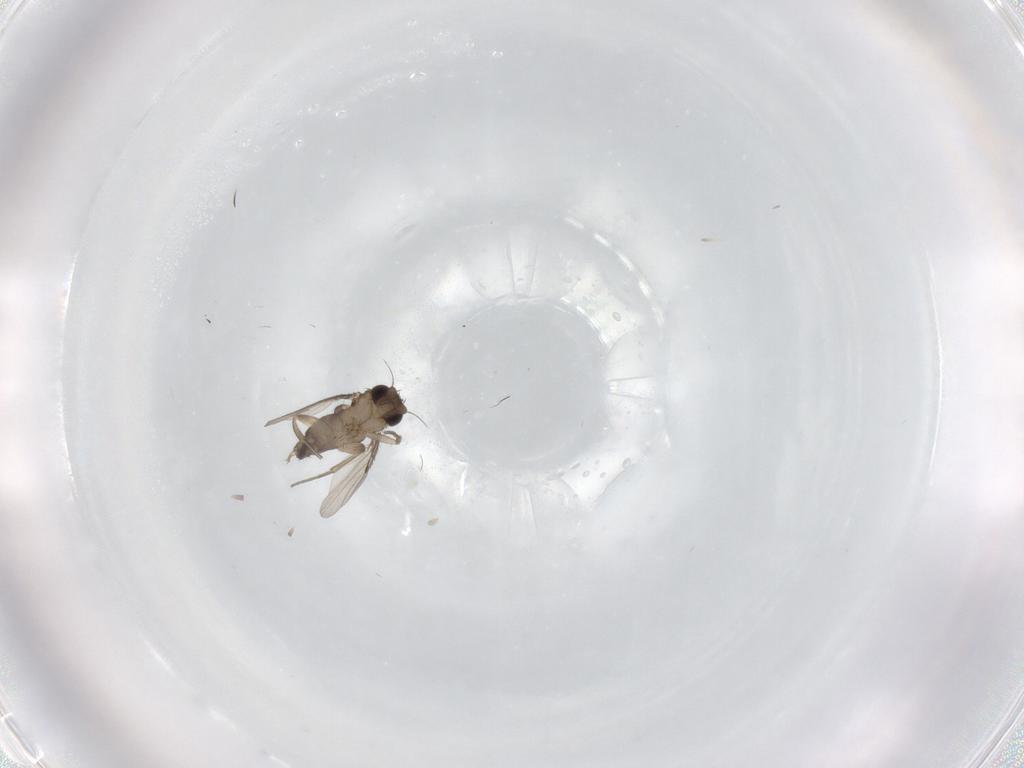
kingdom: Animalia
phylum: Arthropoda
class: Insecta
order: Diptera
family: Phoridae
